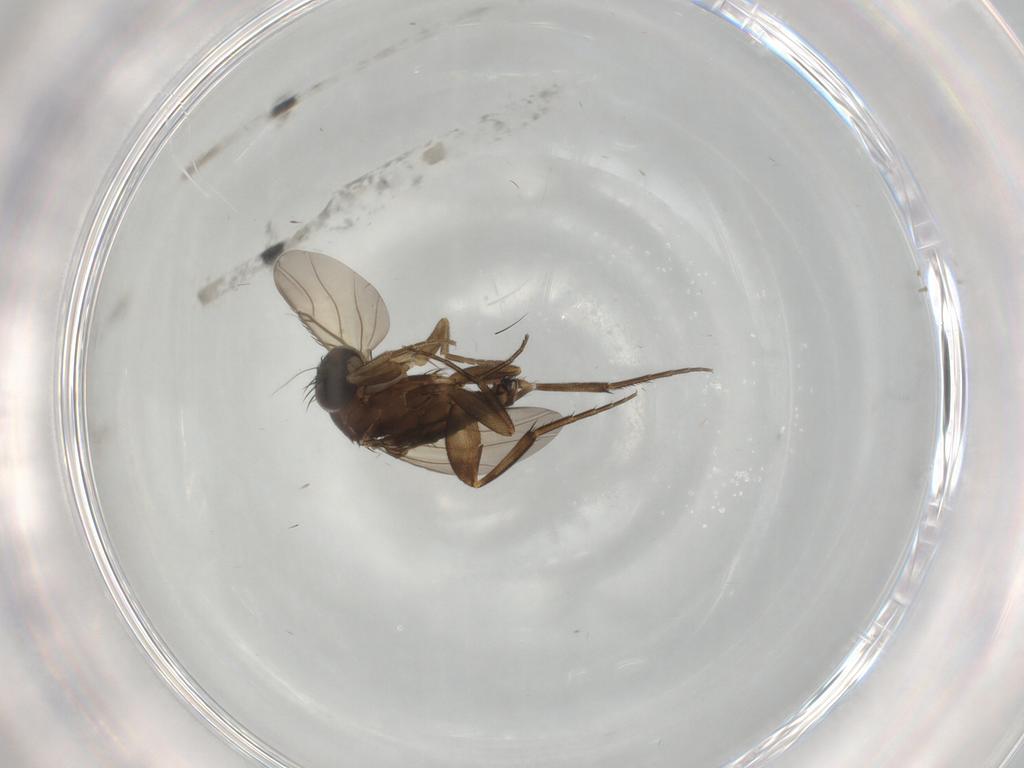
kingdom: Animalia
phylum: Arthropoda
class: Insecta
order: Diptera
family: Phoridae
